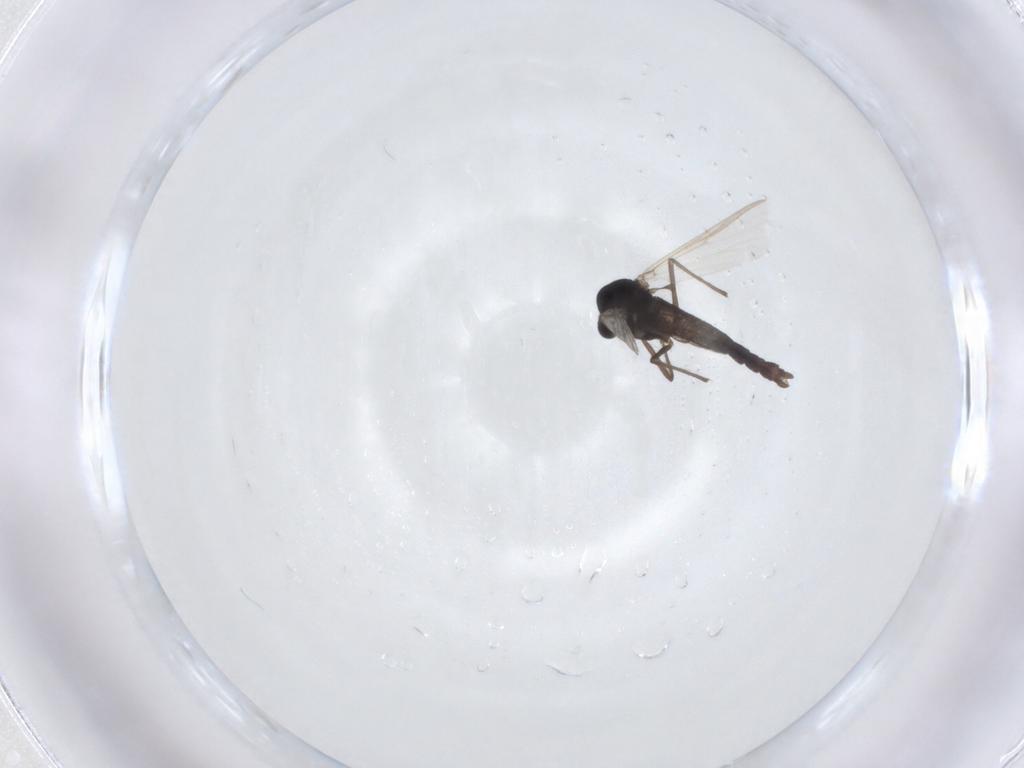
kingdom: Animalia
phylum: Arthropoda
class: Insecta
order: Diptera
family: Chironomidae
